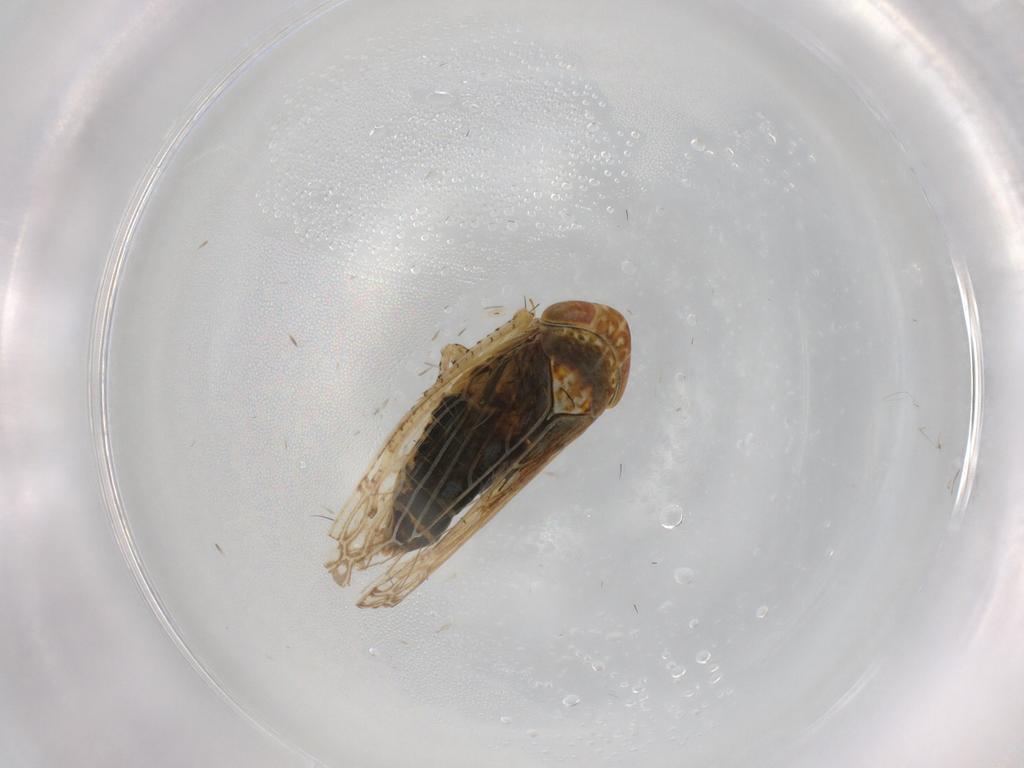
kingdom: Animalia
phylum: Arthropoda
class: Insecta
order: Hemiptera
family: Cicadellidae
